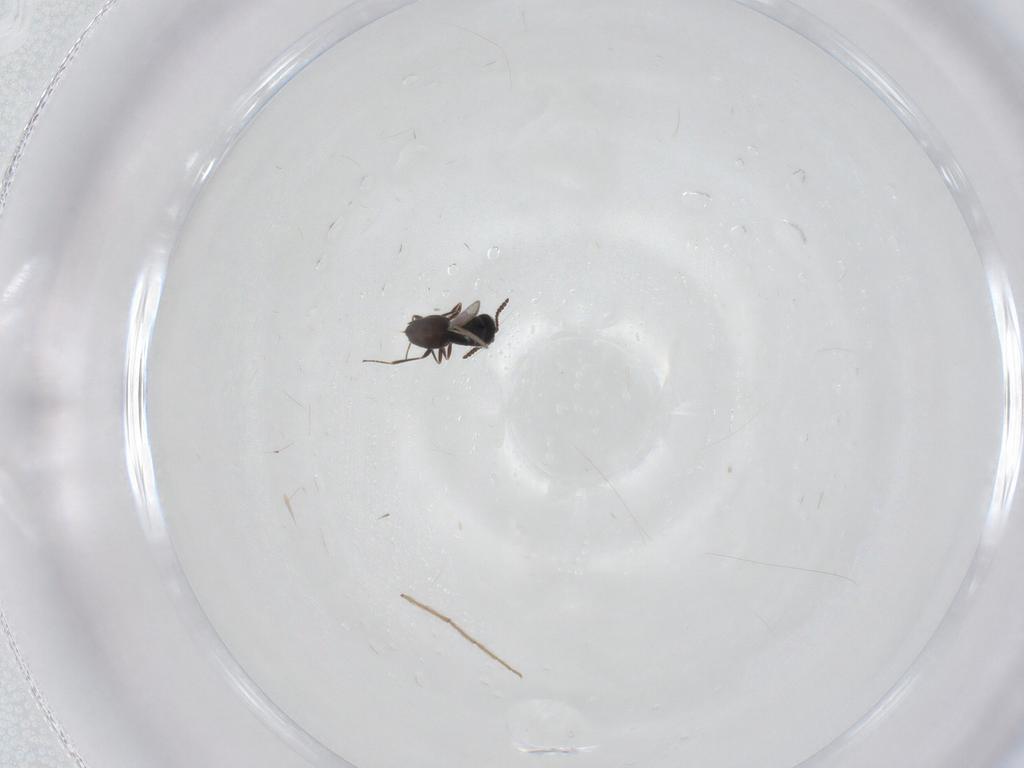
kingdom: Animalia
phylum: Arthropoda
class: Insecta
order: Hymenoptera
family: Scelionidae
